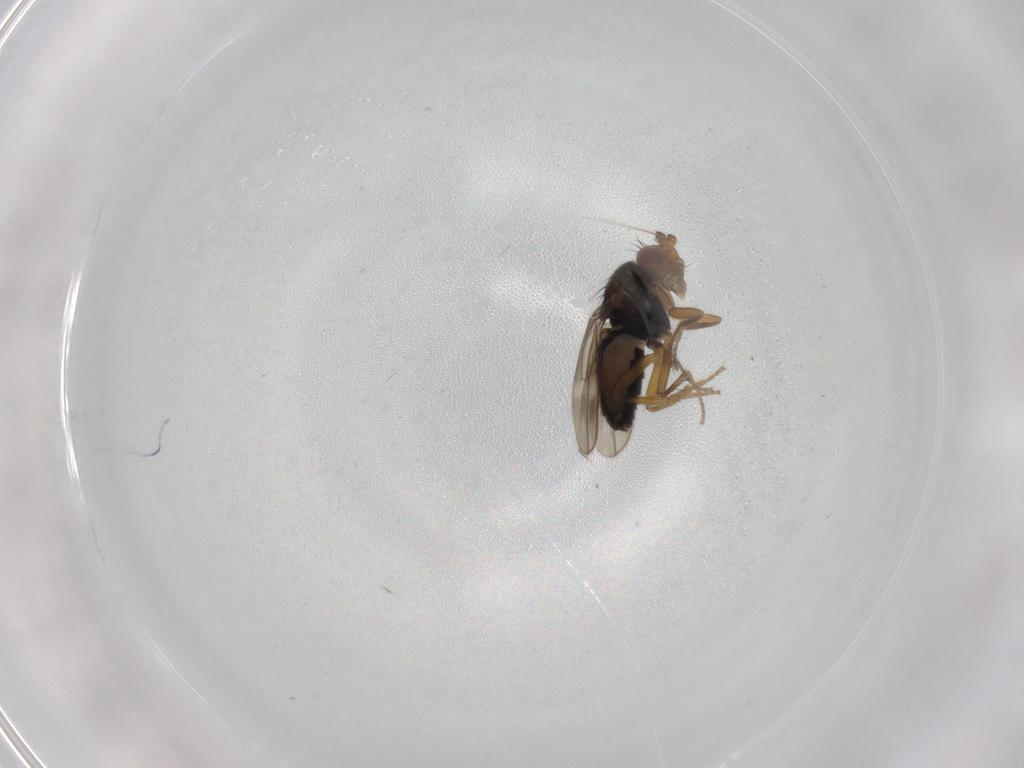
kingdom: Animalia
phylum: Arthropoda
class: Insecta
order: Diptera
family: Sphaeroceridae
